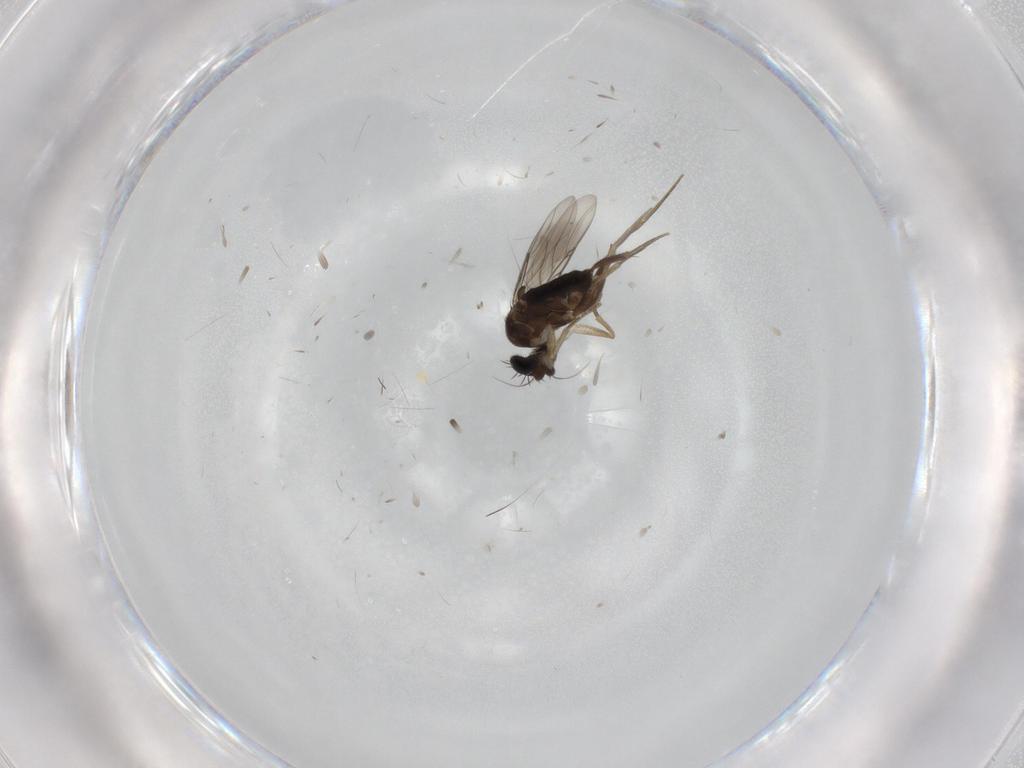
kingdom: Animalia
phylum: Arthropoda
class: Insecta
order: Diptera
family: Phoridae
